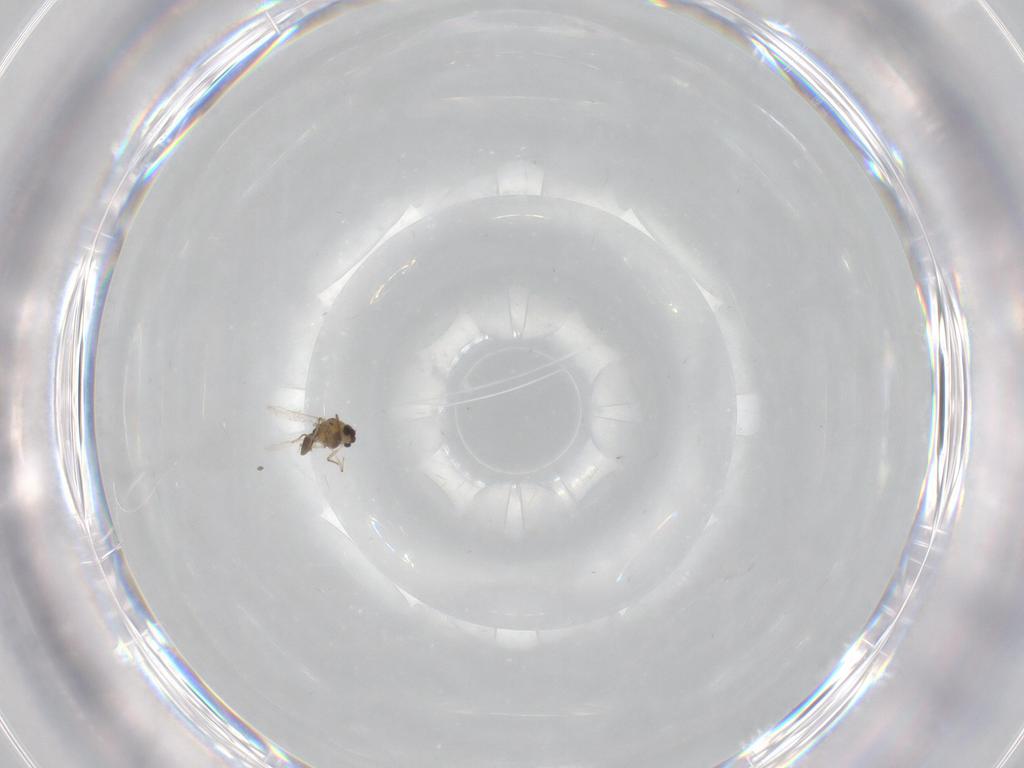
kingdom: Animalia
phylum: Arthropoda
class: Insecta
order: Diptera
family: Chironomidae
